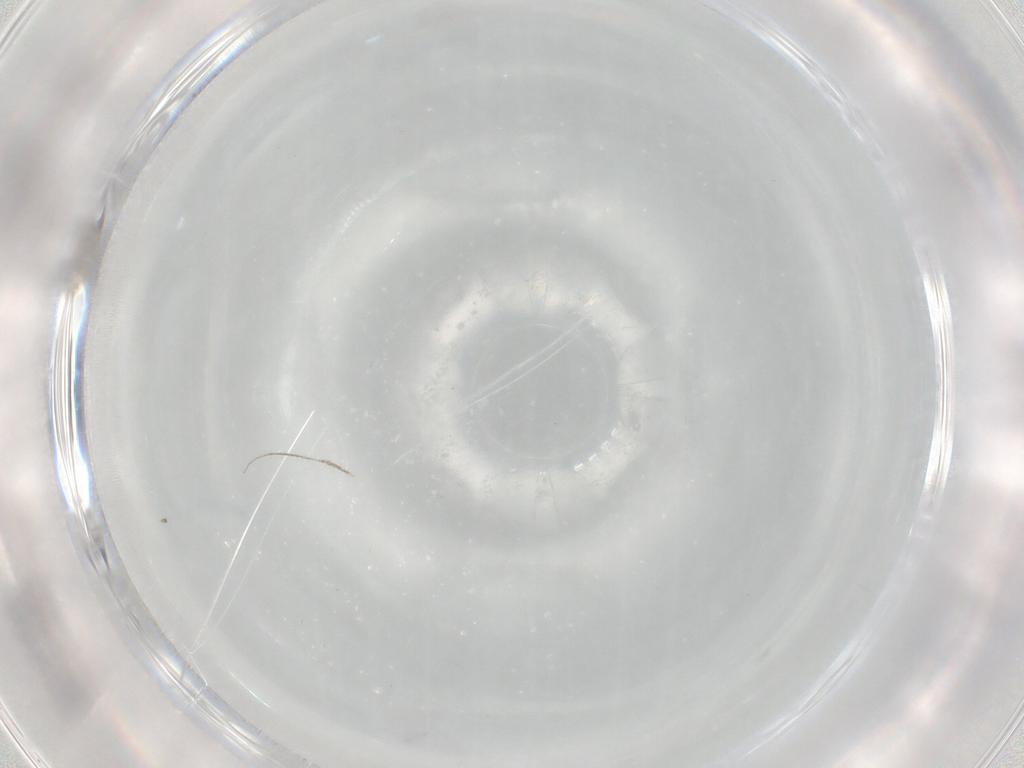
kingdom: Animalia
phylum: Arthropoda
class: Insecta
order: Diptera
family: Cecidomyiidae
